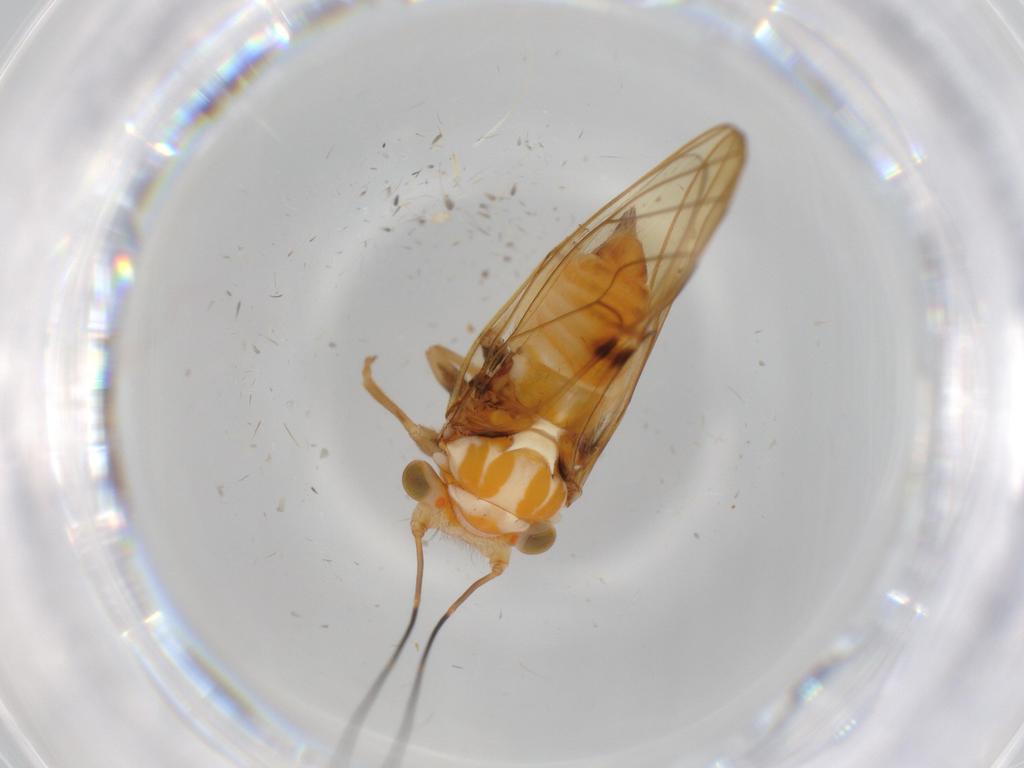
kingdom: Animalia
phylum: Arthropoda
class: Insecta
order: Hemiptera
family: Psyllidae
